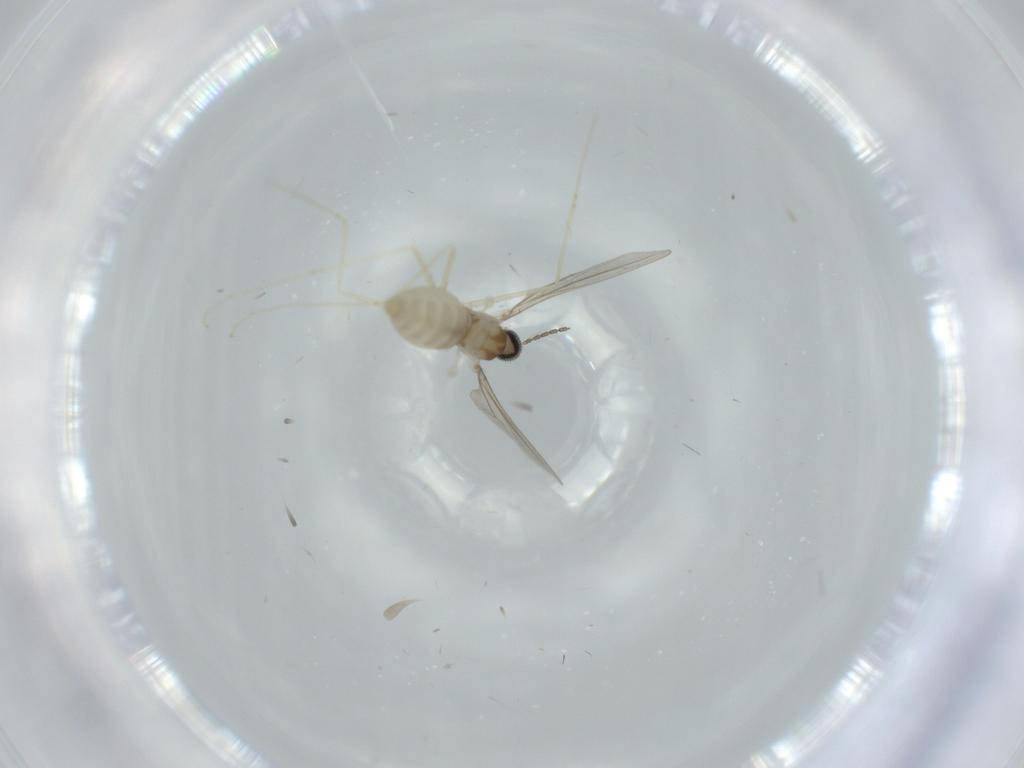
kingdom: Animalia
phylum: Arthropoda
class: Insecta
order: Diptera
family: Cecidomyiidae
